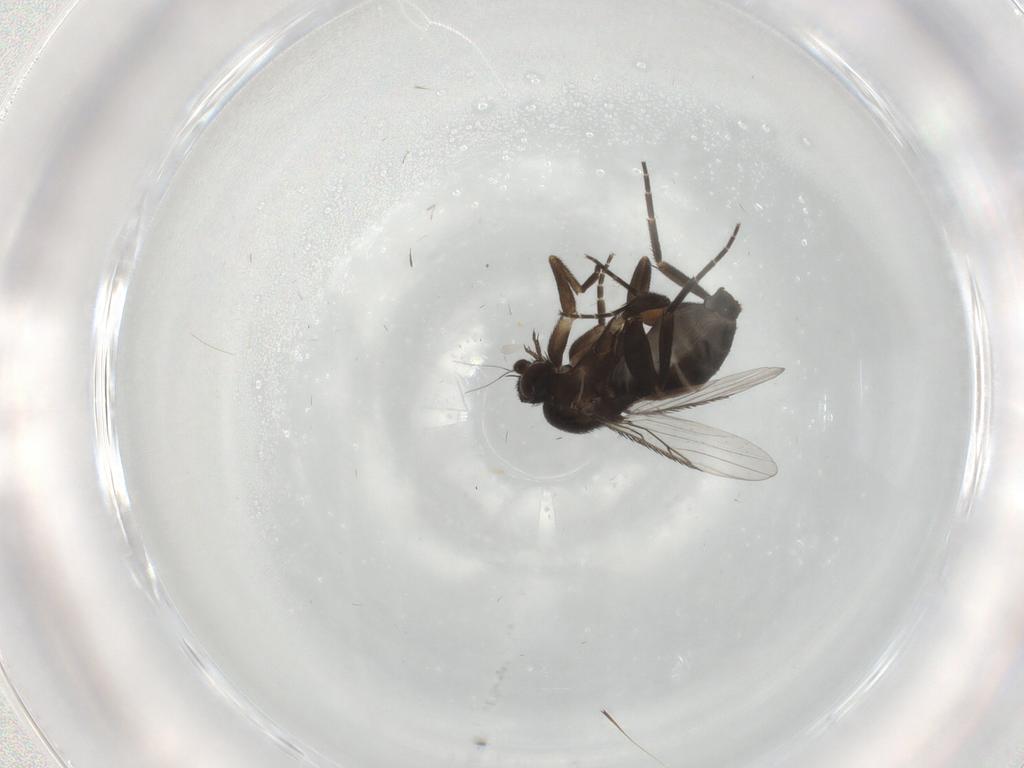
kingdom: Animalia
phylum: Arthropoda
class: Insecta
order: Diptera
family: Phoridae
